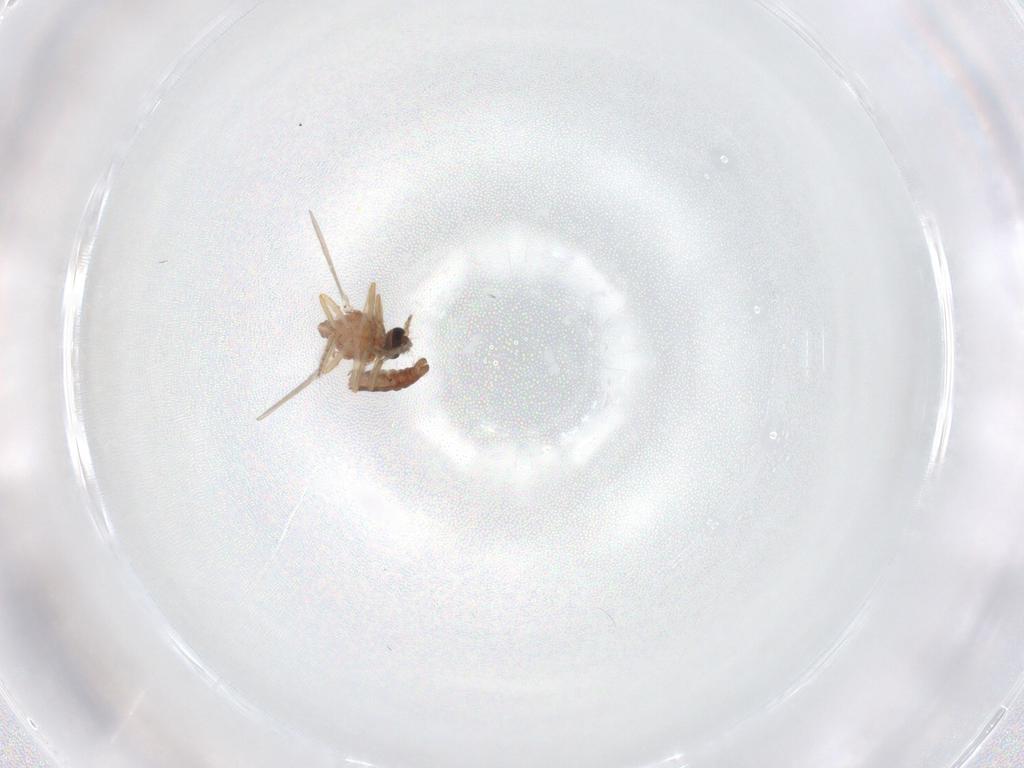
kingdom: Animalia
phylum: Arthropoda
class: Insecta
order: Diptera
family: Ceratopogonidae
